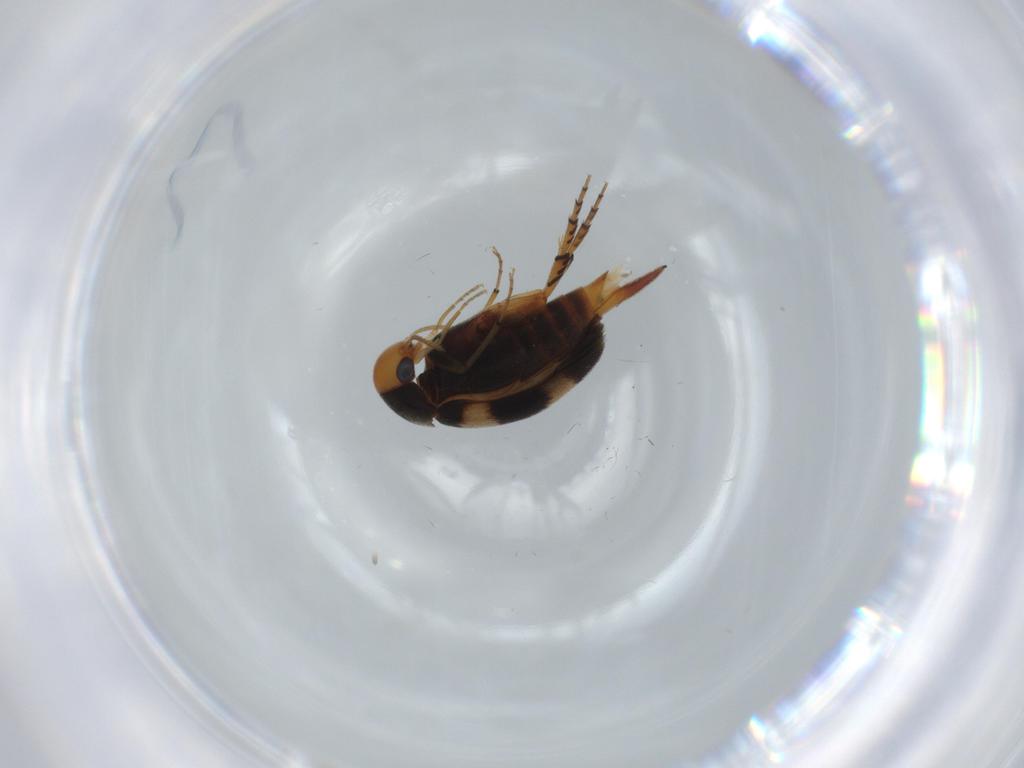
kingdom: Animalia
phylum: Arthropoda
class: Insecta
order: Coleoptera
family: Mordellidae
